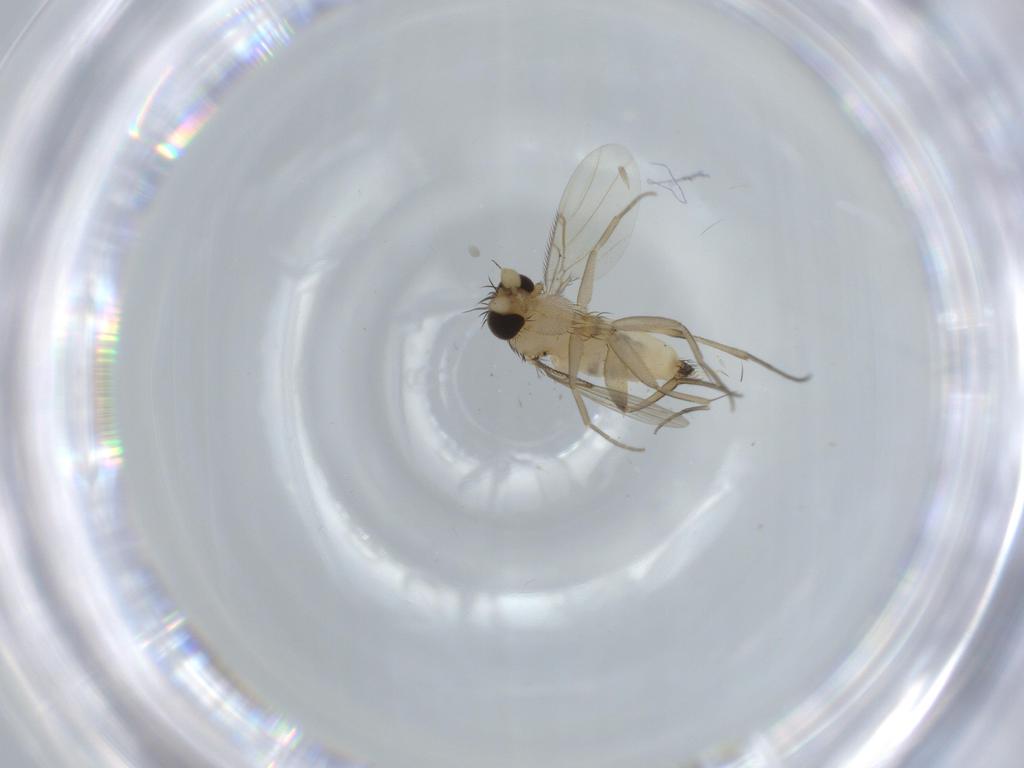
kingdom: Animalia
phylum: Arthropoda
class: Insecta
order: Diptera
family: Phoridae
